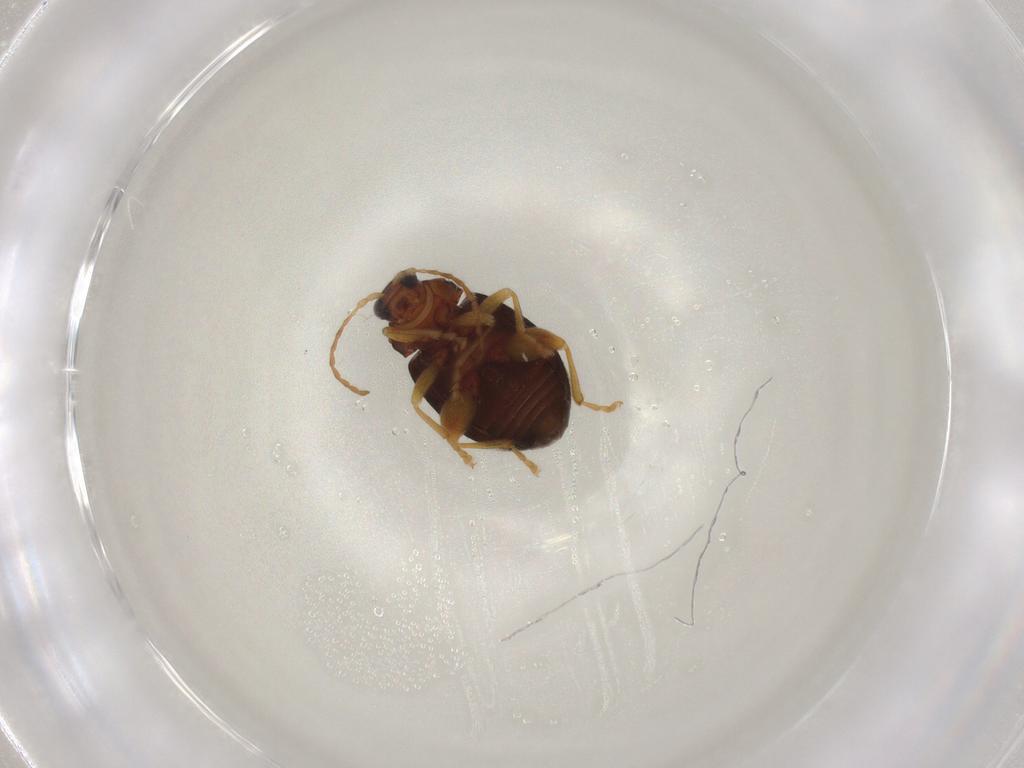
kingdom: Animalia
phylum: Arthropoda
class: Insecta
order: Coleoptera
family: Chrysomelidae
